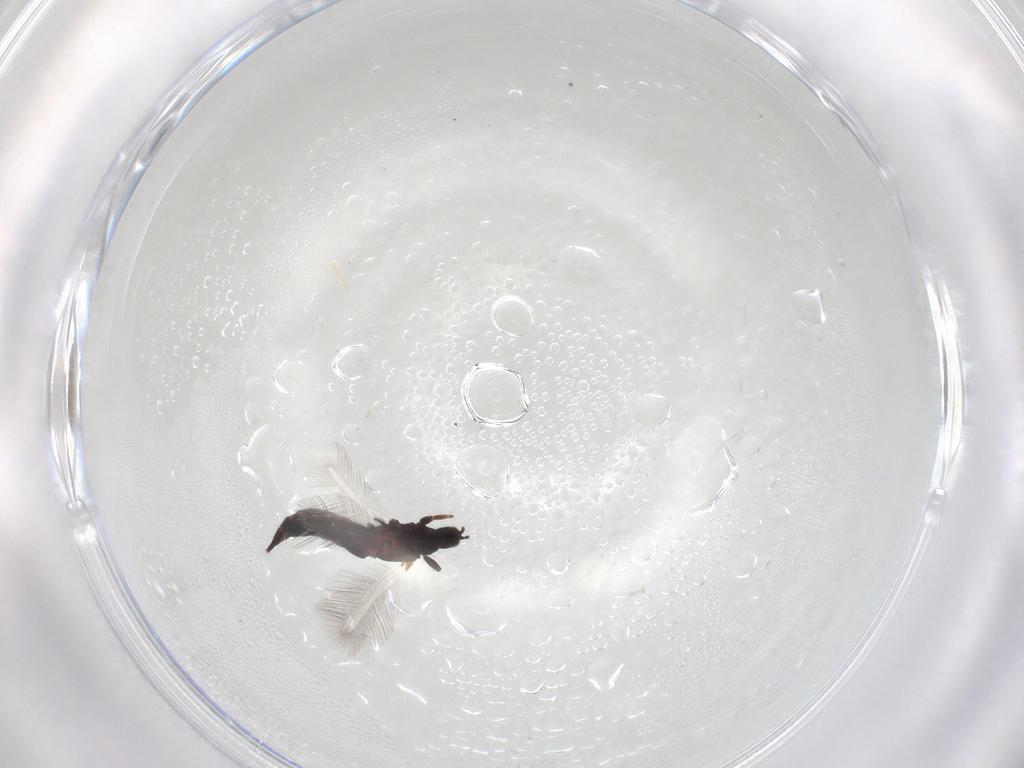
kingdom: Animalia
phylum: Arthropoda
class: Insecta
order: Thysanoptera
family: Phlaeothripidae
